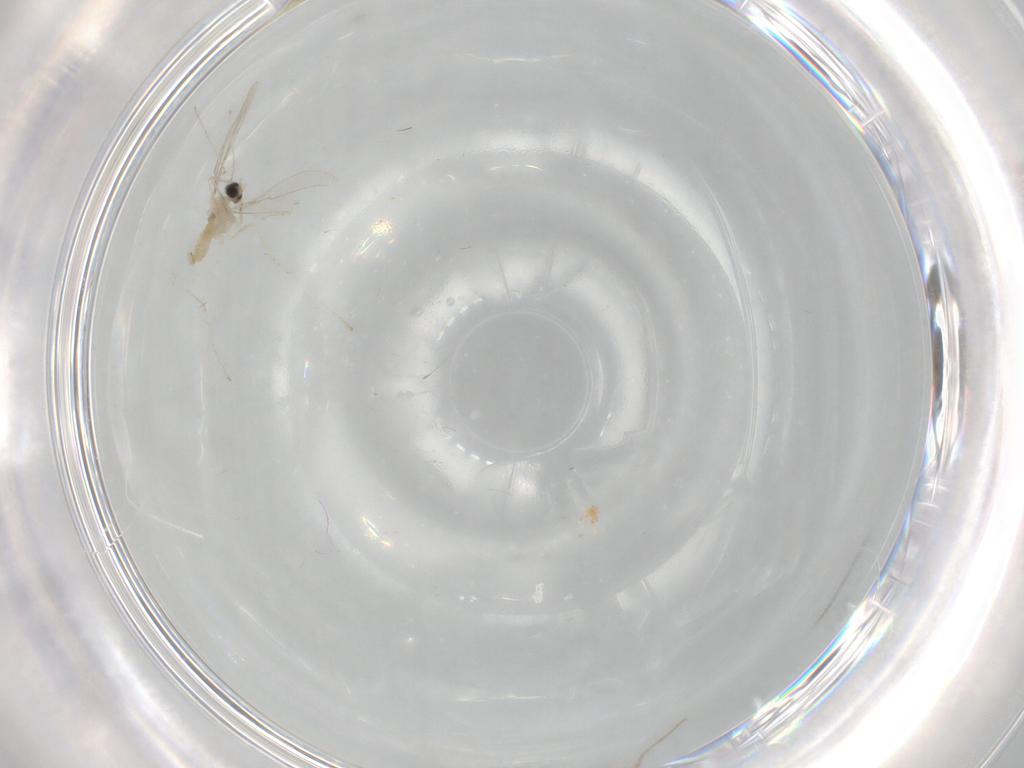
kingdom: Animalia
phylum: Arthropoda
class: Insecta
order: Diptera
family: Cecidomyiidae
